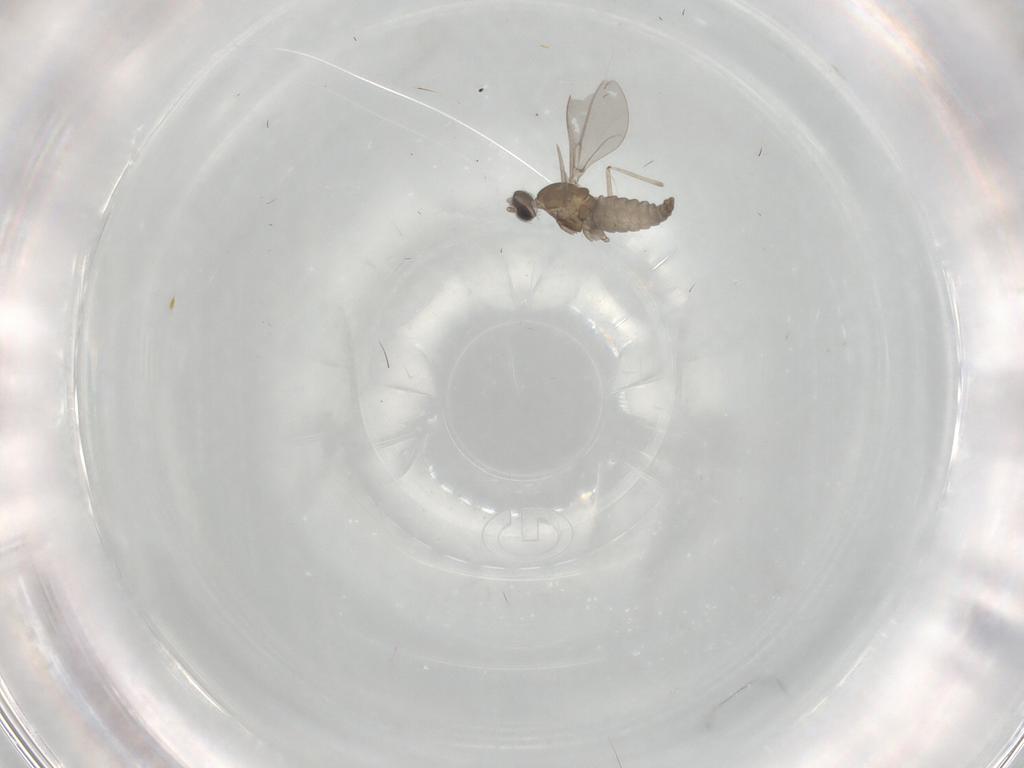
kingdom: Animalia
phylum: Arthropoda
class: Insecta
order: Diptera
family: Cecidomyiidae
